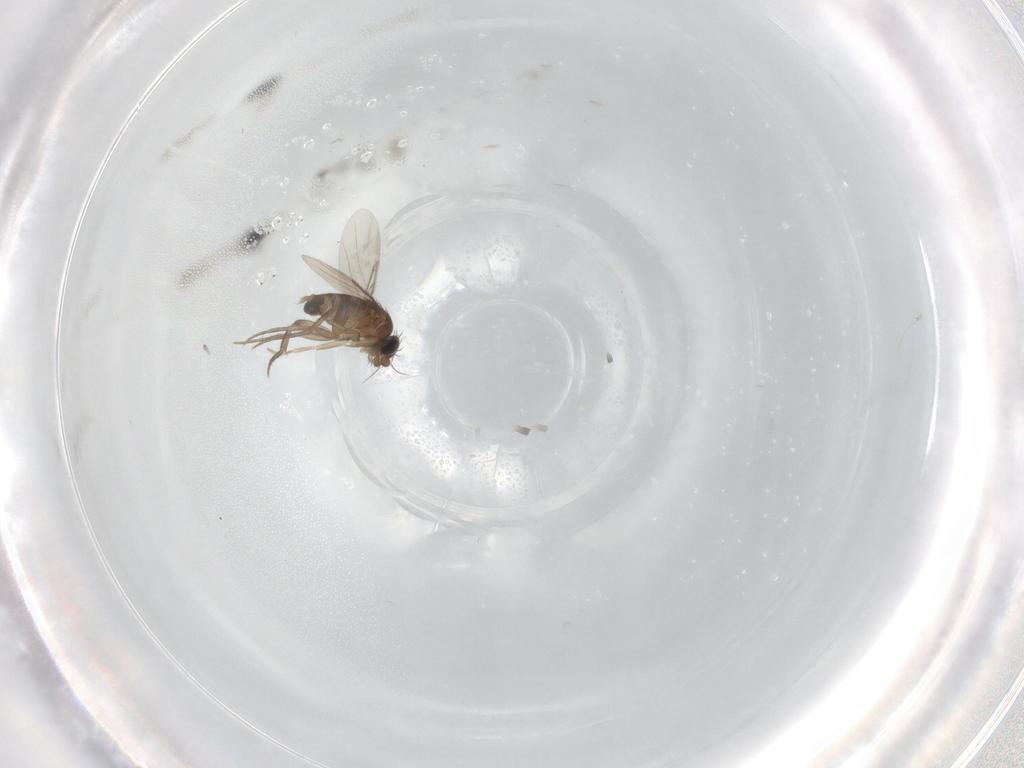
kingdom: Animalia
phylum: Arthropoda
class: Insecta
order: Diptera
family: Phoridae
